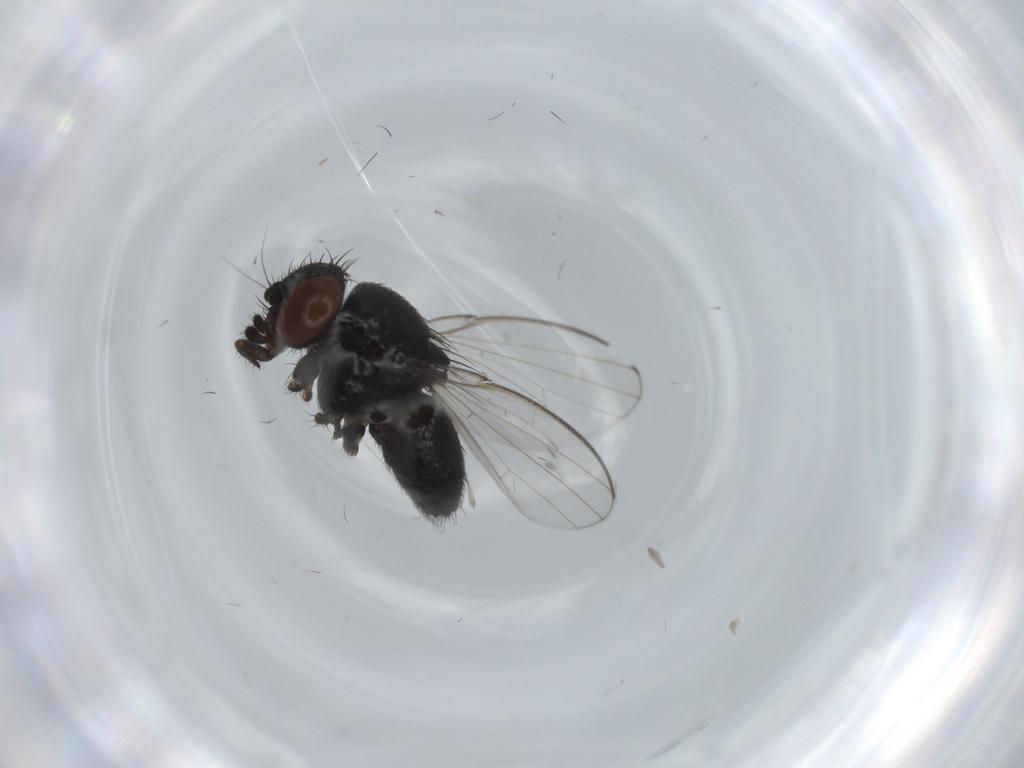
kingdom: Animalia
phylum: Arthropoda
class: Insecta
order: Diptera
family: Milichiidae
